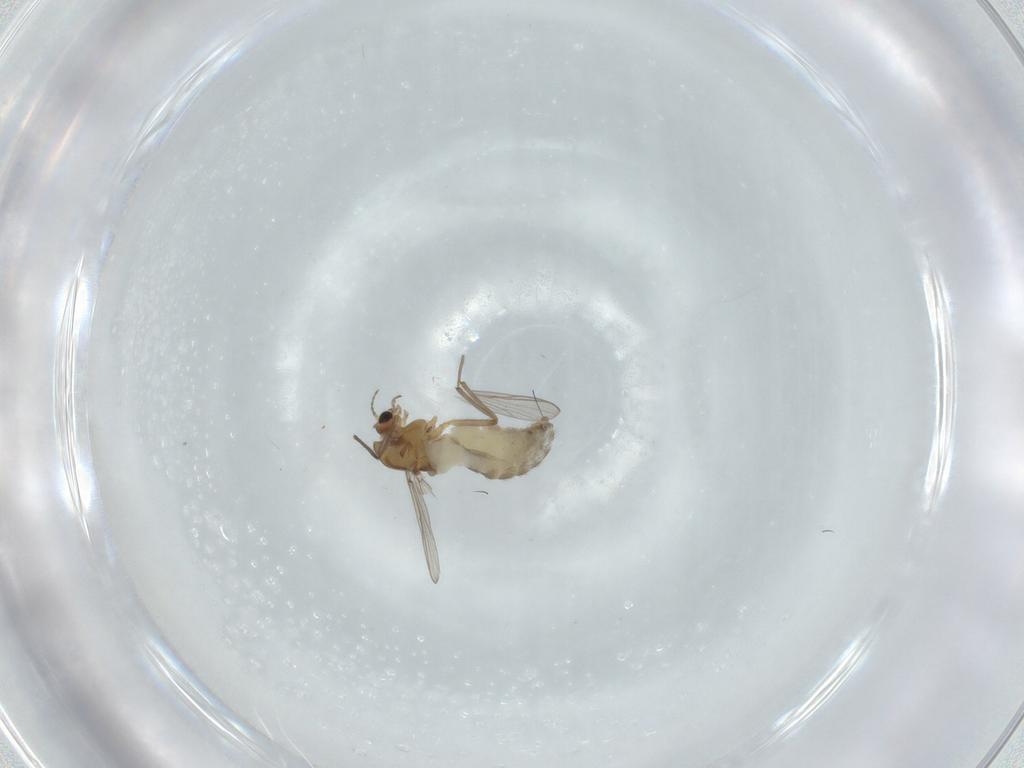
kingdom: Animalia
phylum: Arthropoda
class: Insecta
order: Diptera
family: Chironomidae
